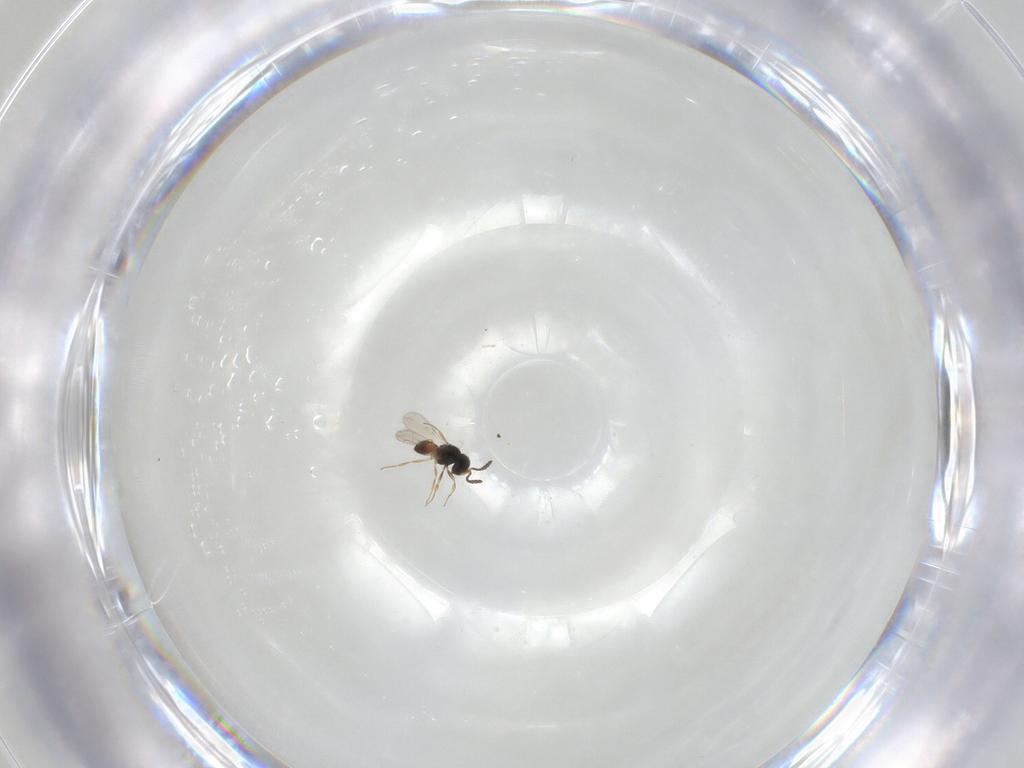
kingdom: Animalia
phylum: Arthropoda
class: Insecta
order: Hymenoptera
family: Scelionidae
